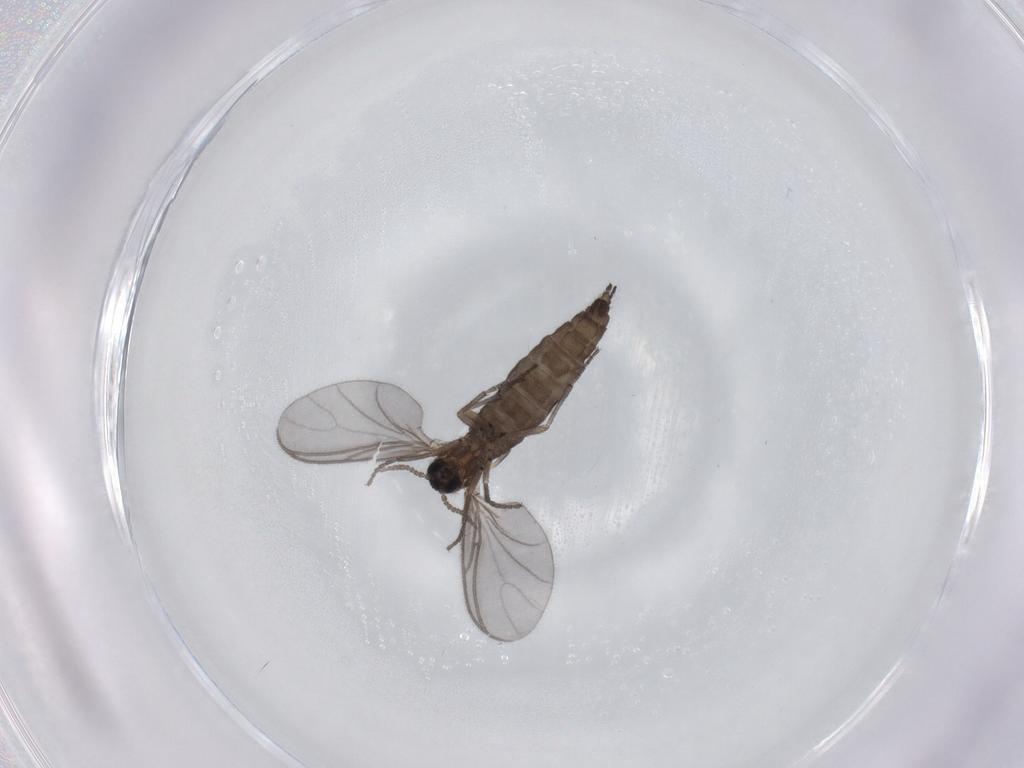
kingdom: Animalia
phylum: Arthropoda
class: Insecta
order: Diptera
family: Sciaridae
